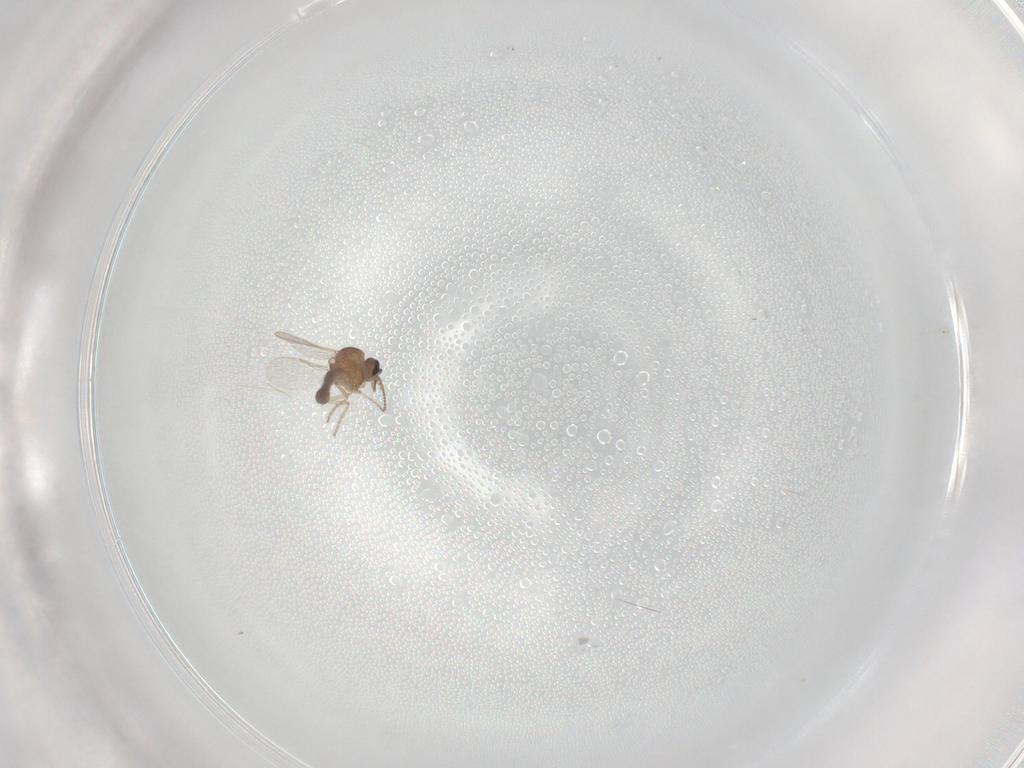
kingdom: Animalia
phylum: Arthropoda
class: Insecta
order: Diptera
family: Ceratopogonidae
